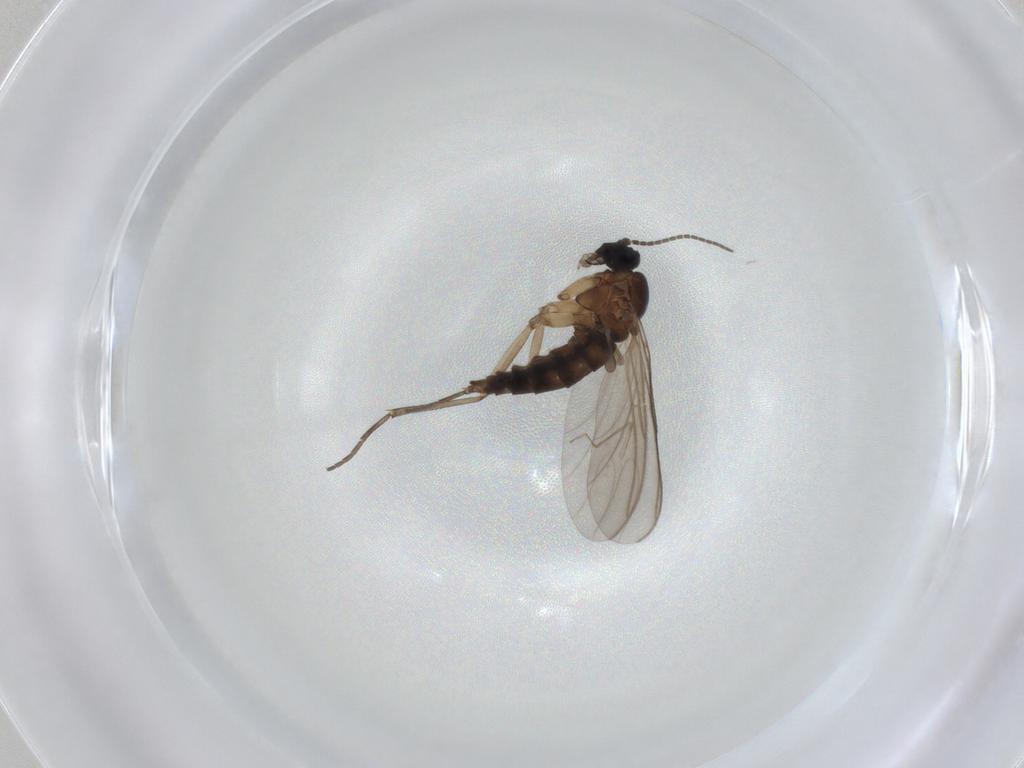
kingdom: Animalia
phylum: Arthropoda
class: Insecta
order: Diptera
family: Sciaridae
